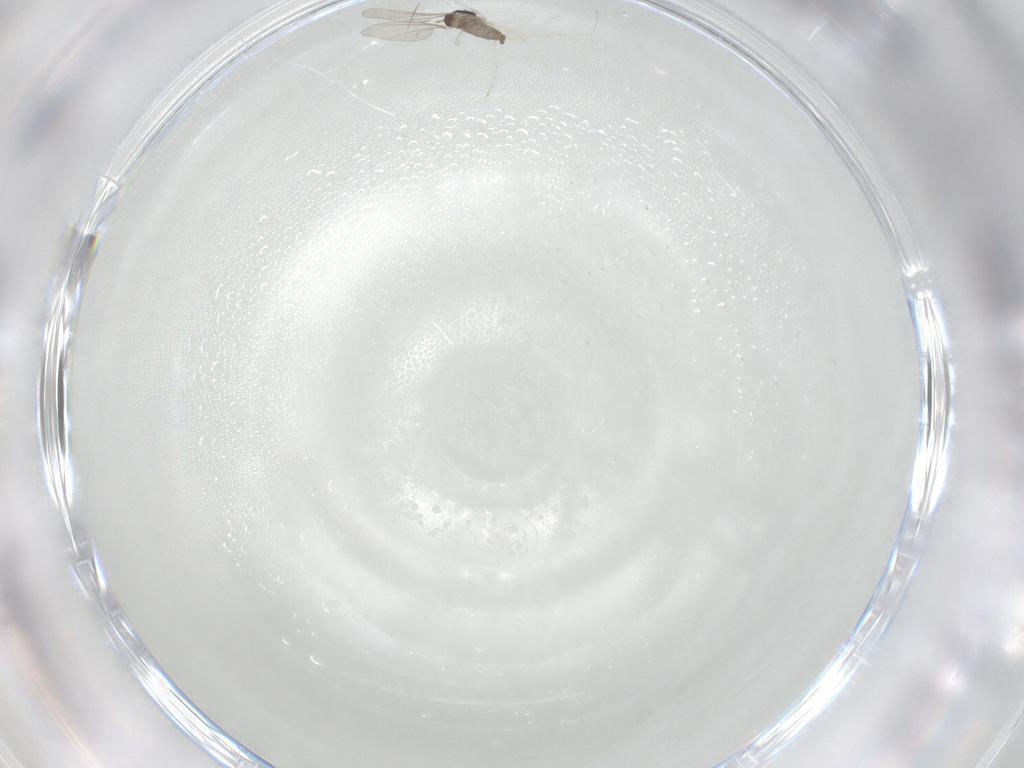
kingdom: Animalia
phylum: Arthropoda
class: Insecta
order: Diptera
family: Cecidomyiidae
